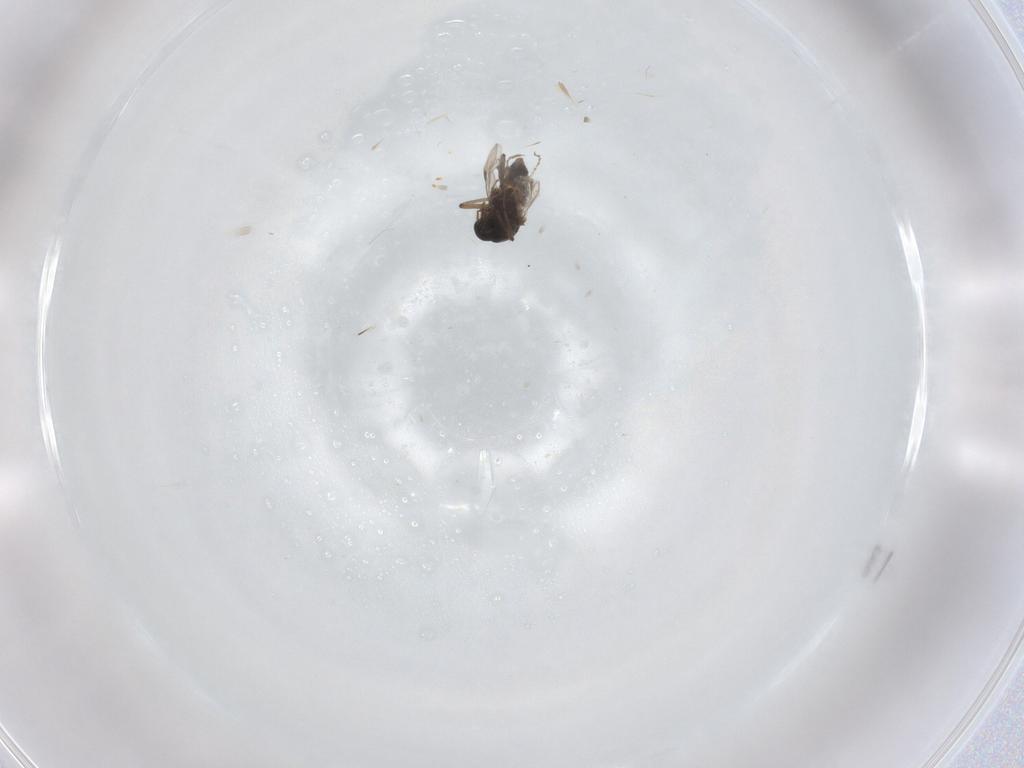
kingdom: Animalia
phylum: Arthropoda
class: Insecta
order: Diptera
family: Ceratopogonidae
